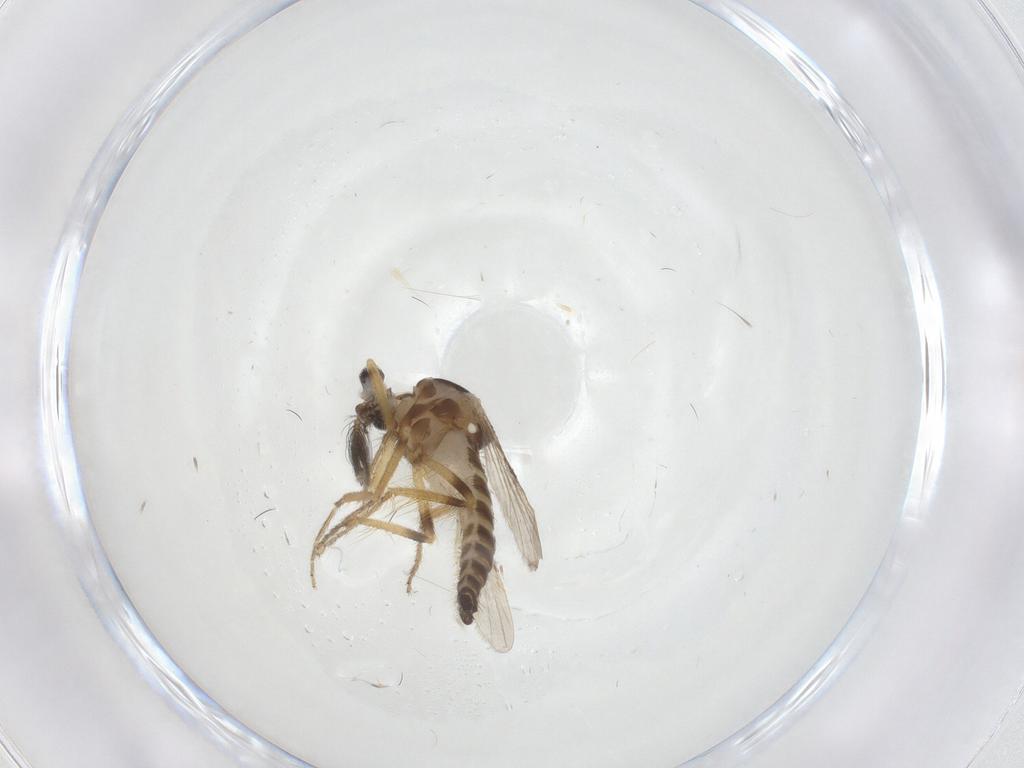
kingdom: Animalia
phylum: Arthropoda
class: Insecta
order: Diptera
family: Ceratopogonidae
